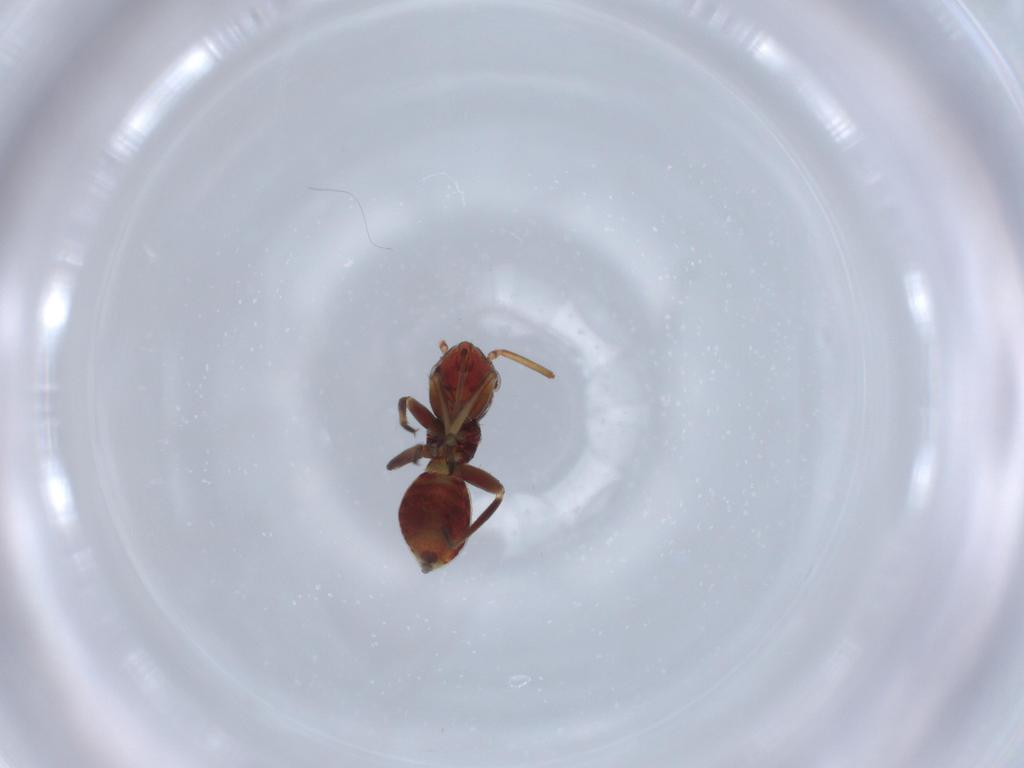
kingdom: Animalia
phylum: Arthropoda
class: Insecta
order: Hemiptera
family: Miridae
